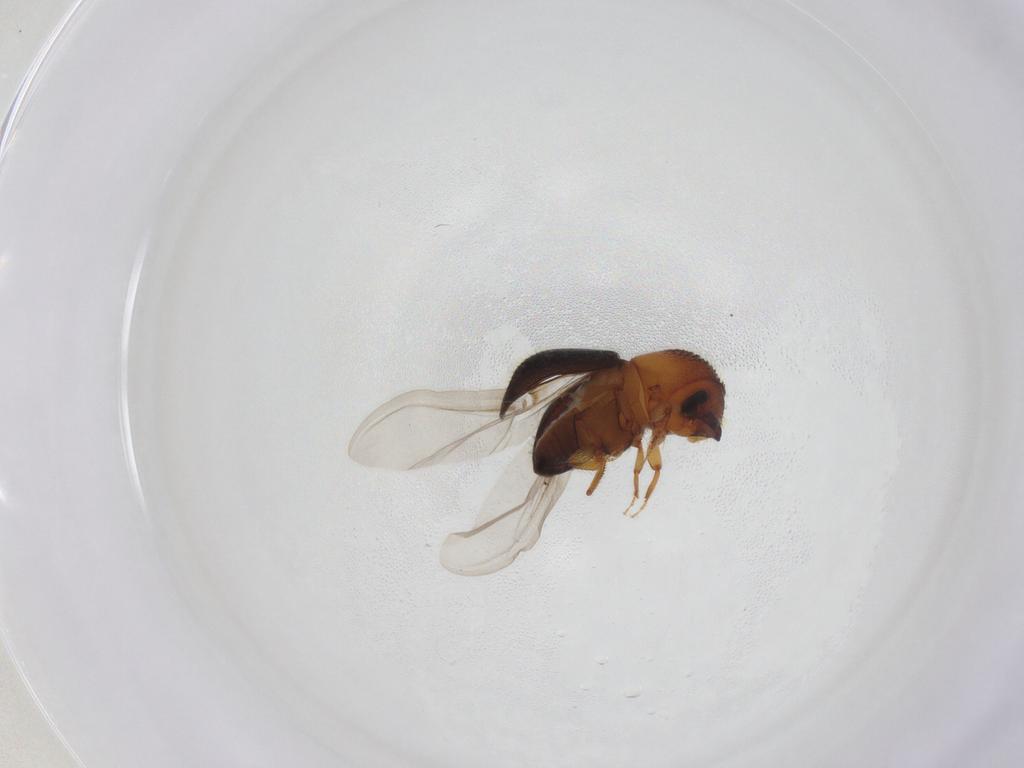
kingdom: Animalia
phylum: Arthropoda
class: Insecta
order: Coleoptera
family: Curculionidae
